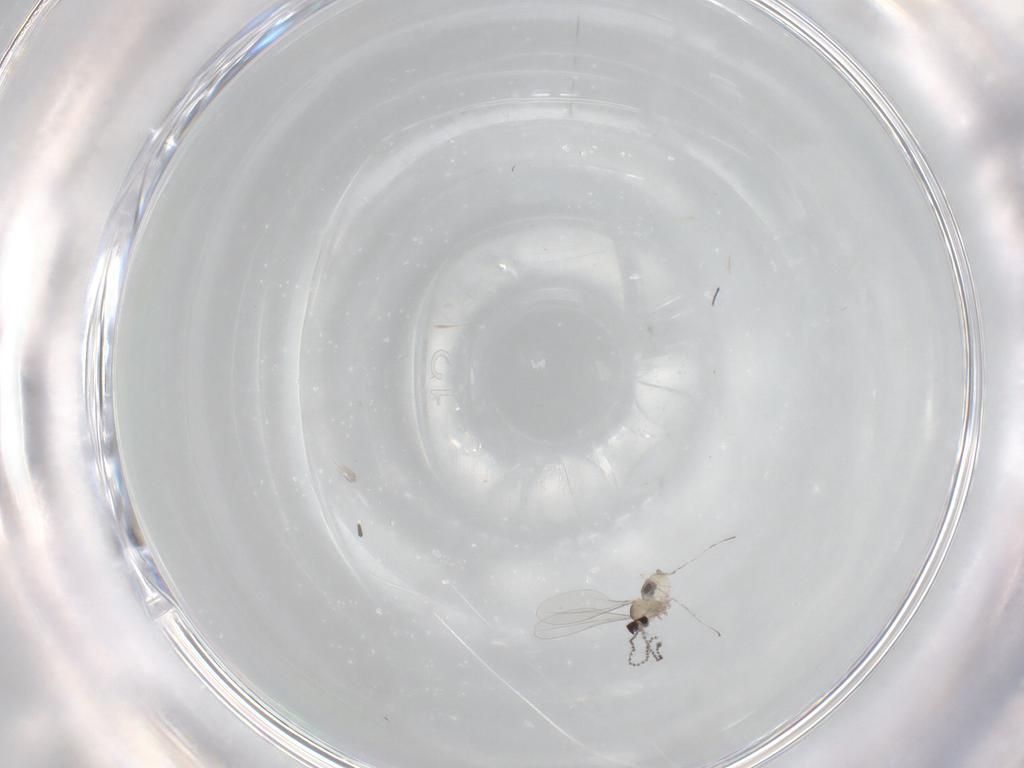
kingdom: Animalia
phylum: Arthropoda
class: Insecta
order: Diptera
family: Cecidomyiidae
